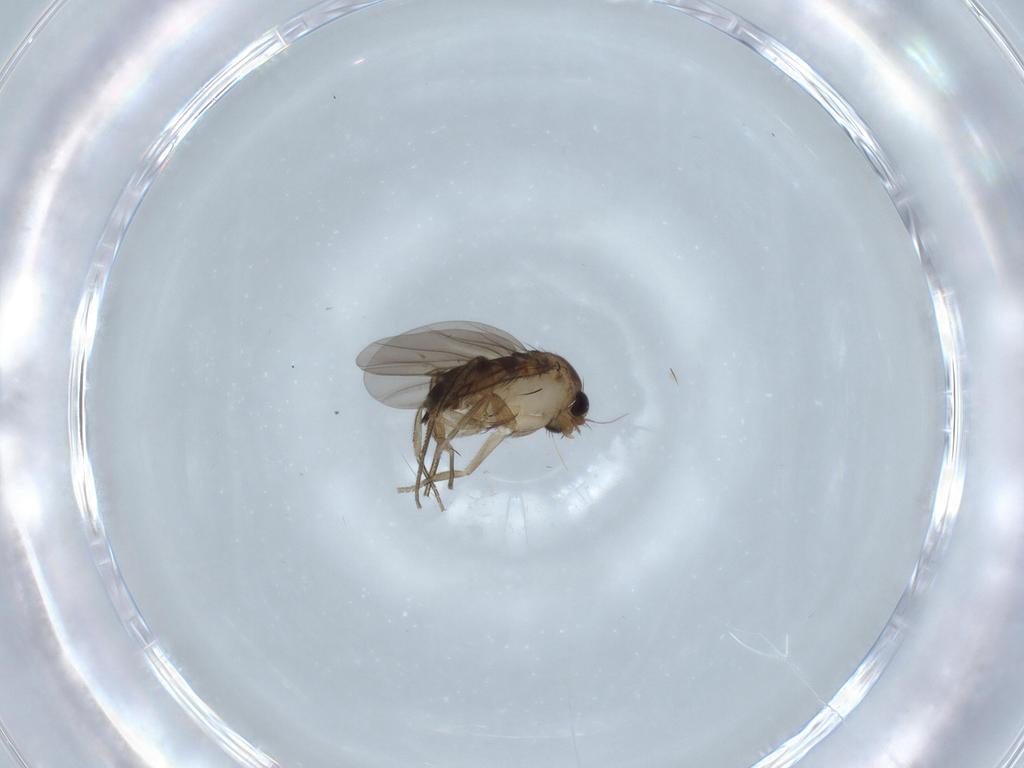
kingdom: Animalia
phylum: Arthropoda
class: Insecta
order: Diptera
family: Phoridae
